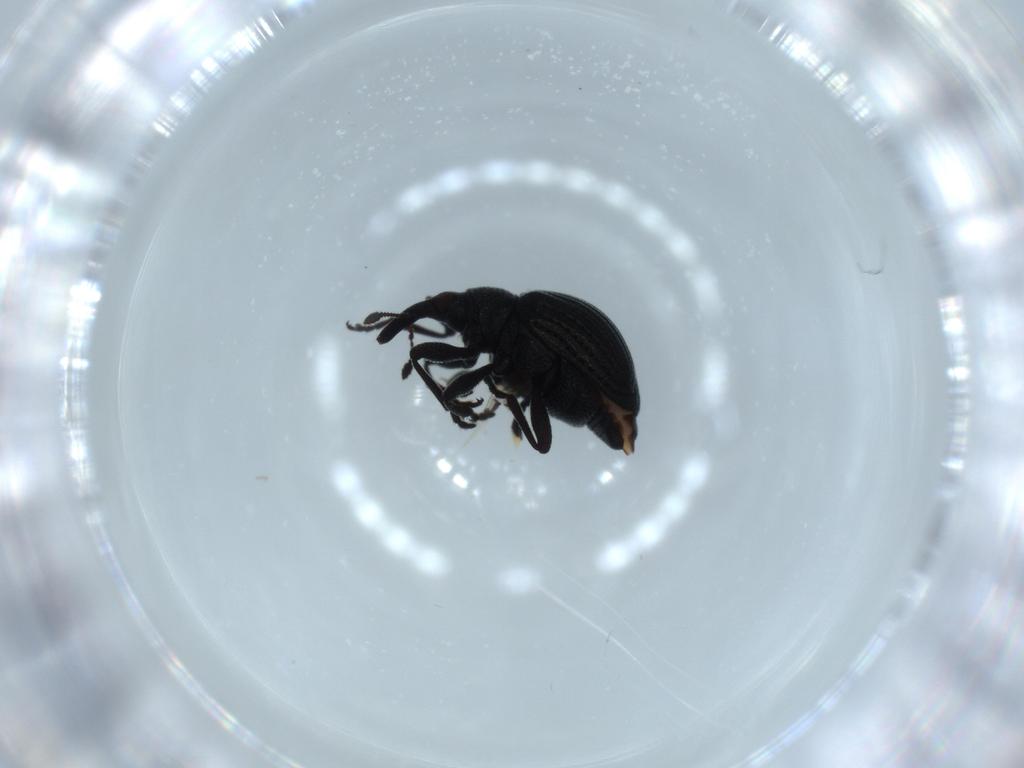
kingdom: Animalia
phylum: Arthropoda
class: Insecta
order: Coleoptera
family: Brentidae
